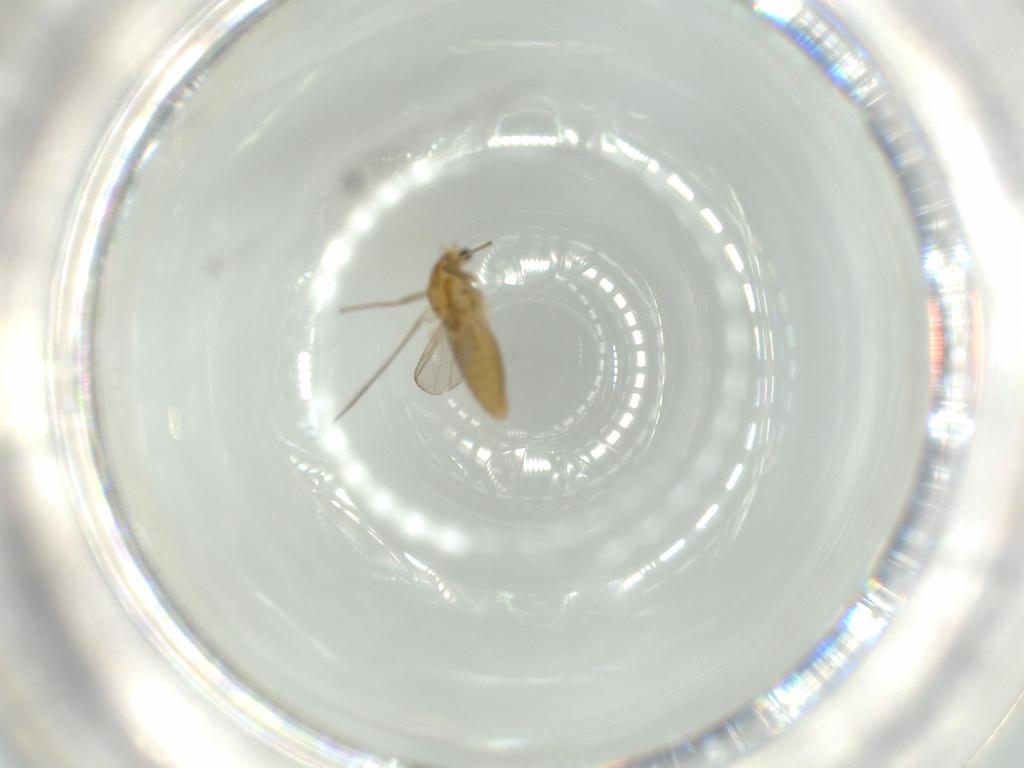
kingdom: Animalia
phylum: Arthropoda
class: Insecta
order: Diptera
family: Chironomidae
